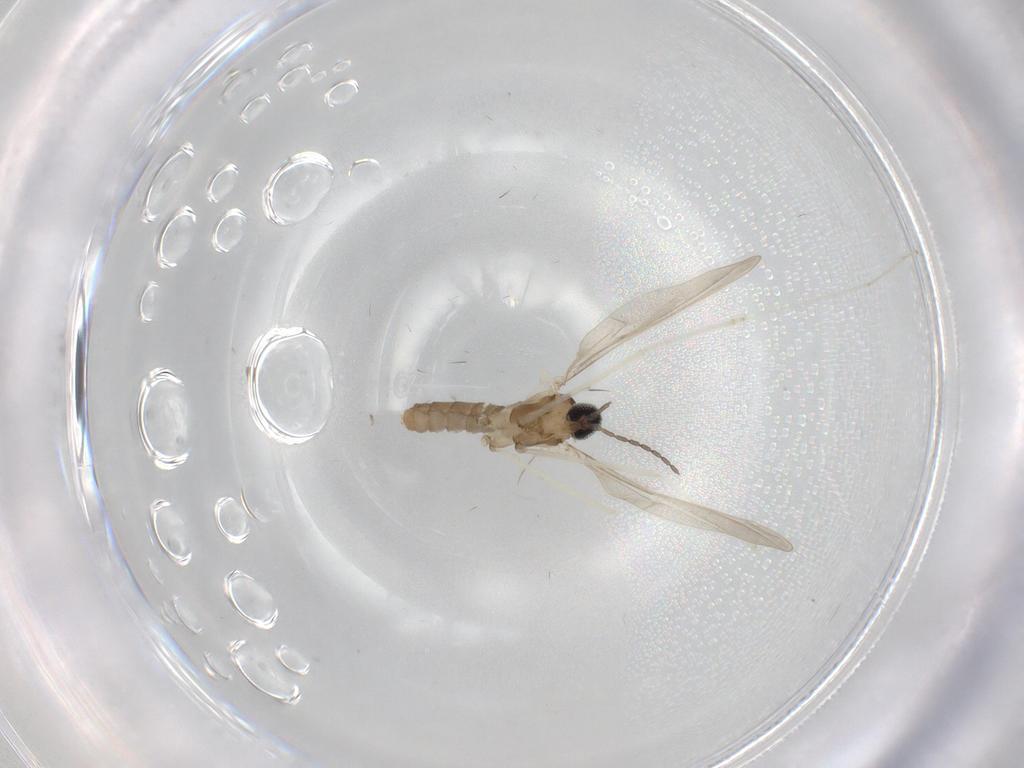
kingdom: Animalia
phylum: Arthropoda
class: Insecta
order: Diptera
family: Cecidomyiidae
